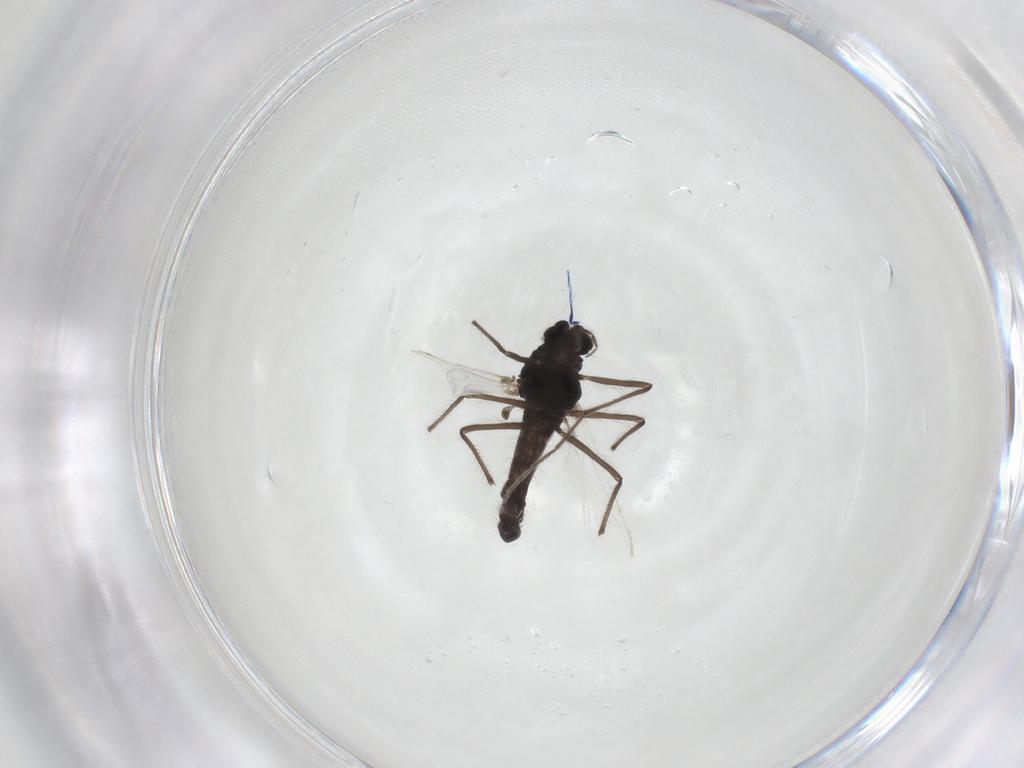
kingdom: Animalia
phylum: Arthropoda
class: Insecta
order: Diptera
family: Chironomidae
